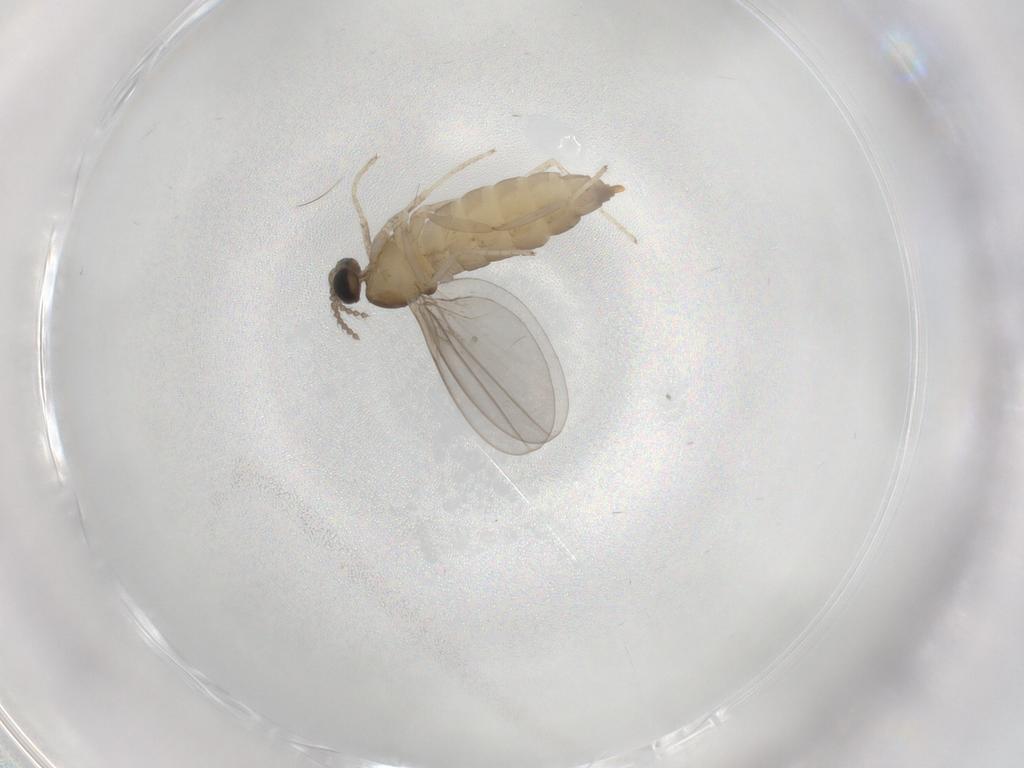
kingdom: Animalia
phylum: Arthropoda
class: Insecta
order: Diptera
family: Cecidomyiidae
